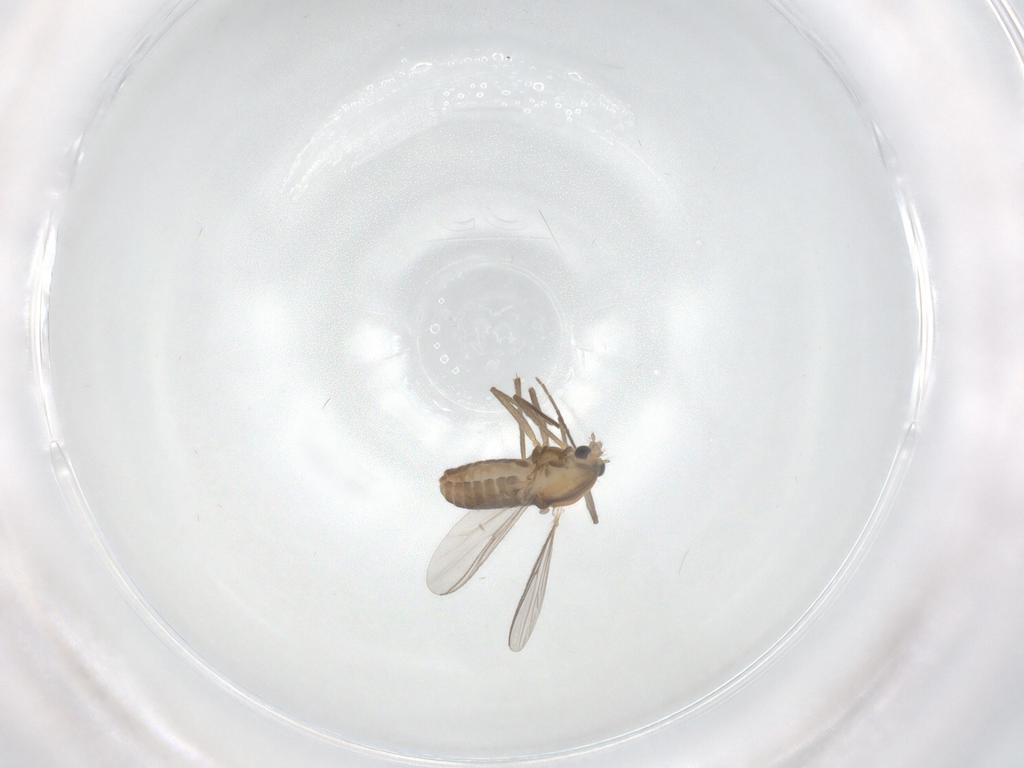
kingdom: Animalia
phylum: Arthropoda
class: Insecta
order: Diptera
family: Chironomidae
